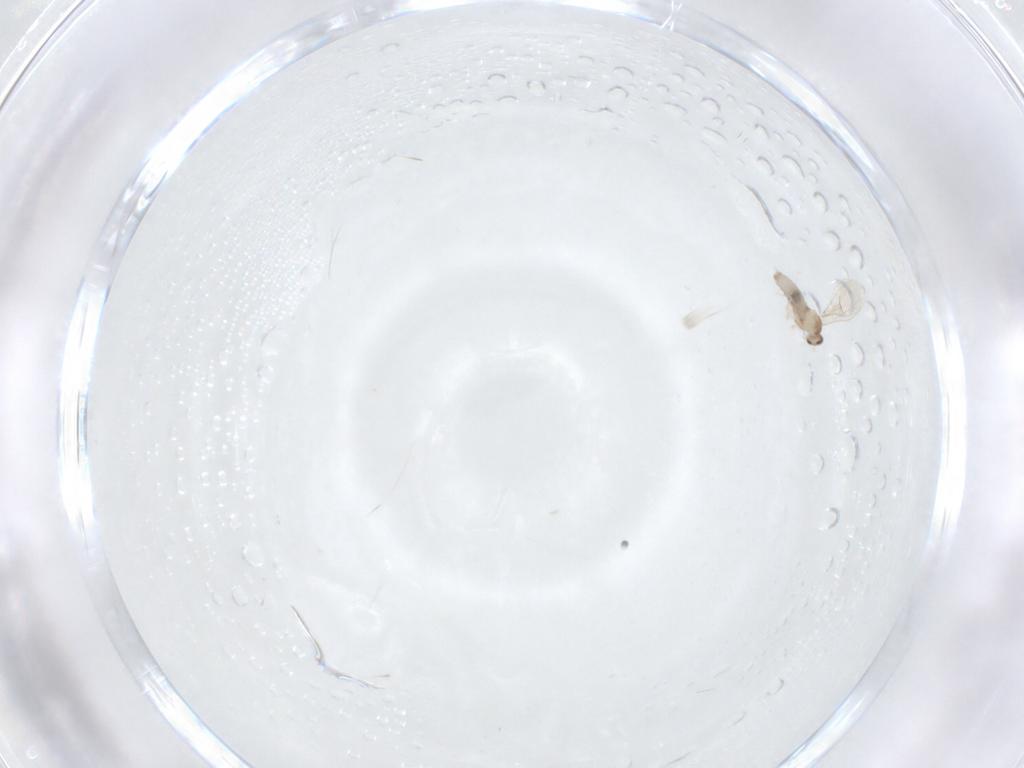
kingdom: Animalia
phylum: Arthropoda
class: Insecta
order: Diptera
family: Cecidomyiidae
